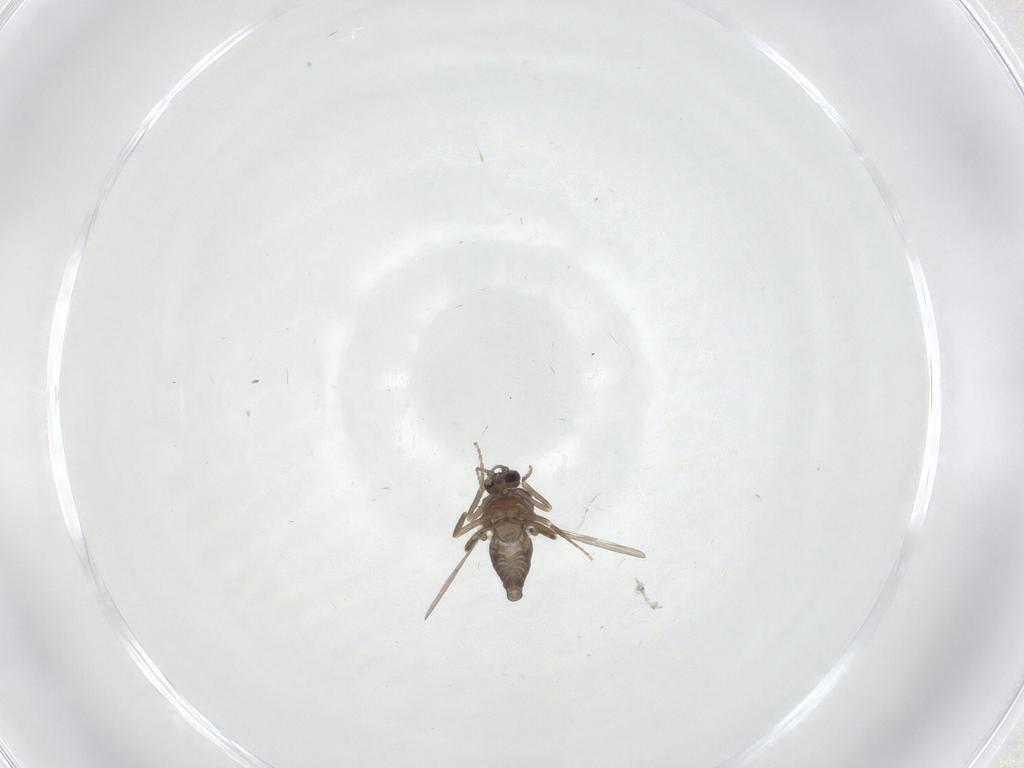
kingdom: Animalia
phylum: Arthropoda
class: Insecta
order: Diptera
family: Ceratopogonidae
